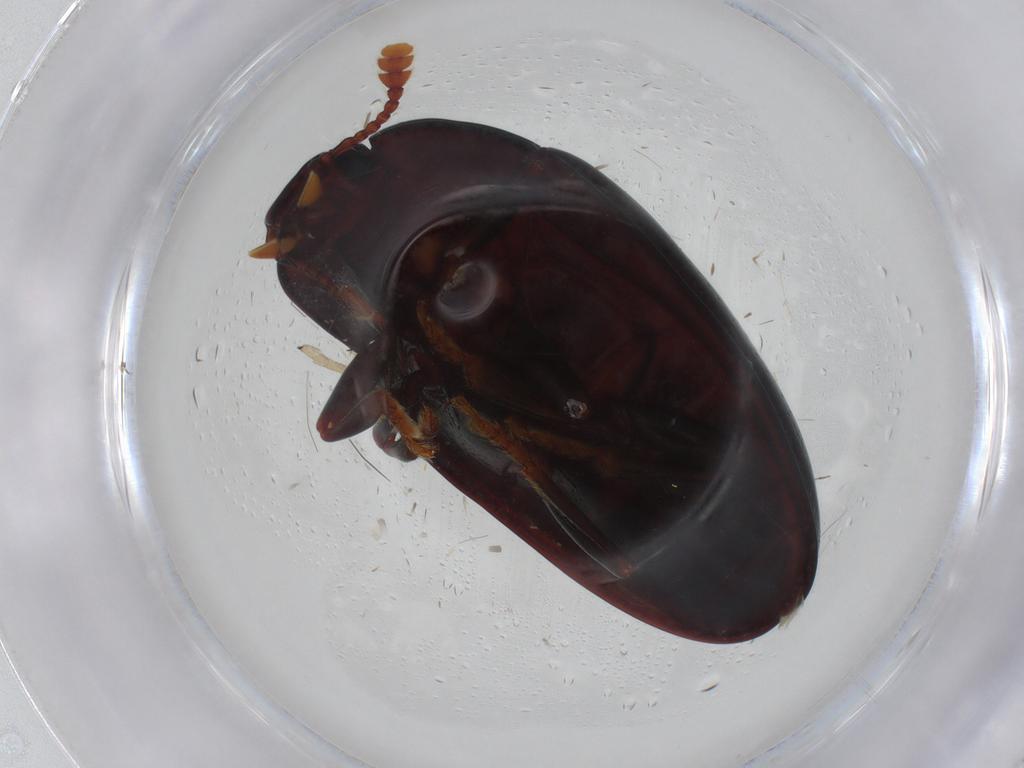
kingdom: Animalia
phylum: Arthropoda
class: Insecta
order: Coleoptera
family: Erotylidae
